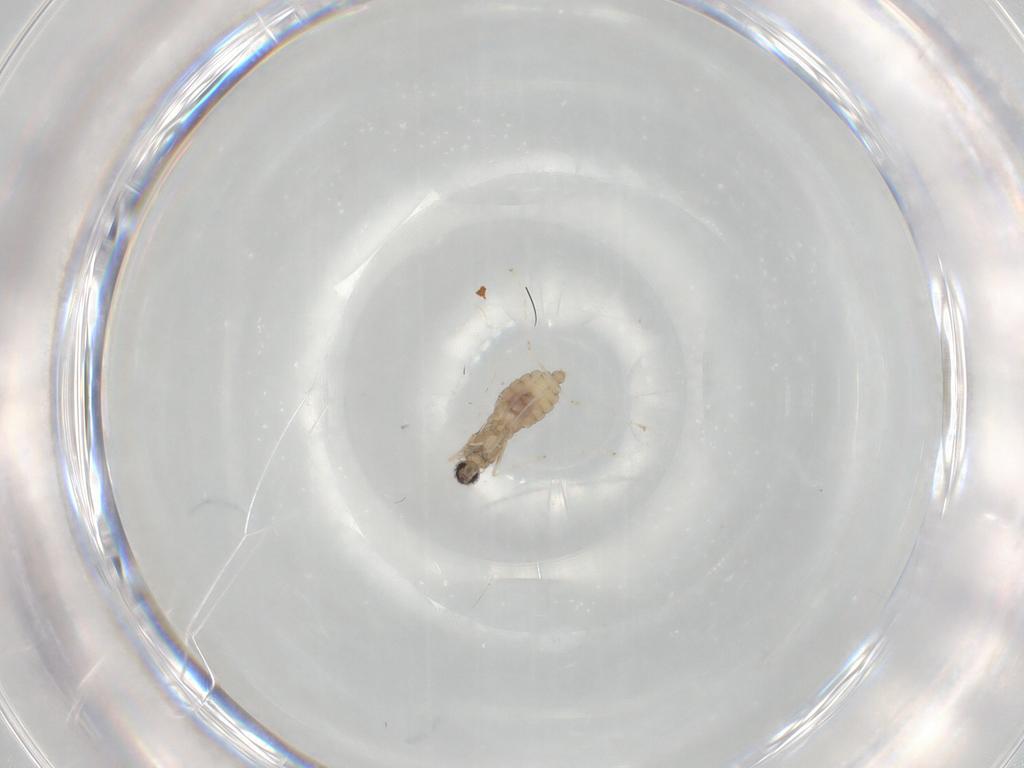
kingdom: Animalia
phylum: Arthropoda
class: Insecta
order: Diptera
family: Cecidomyiidae
